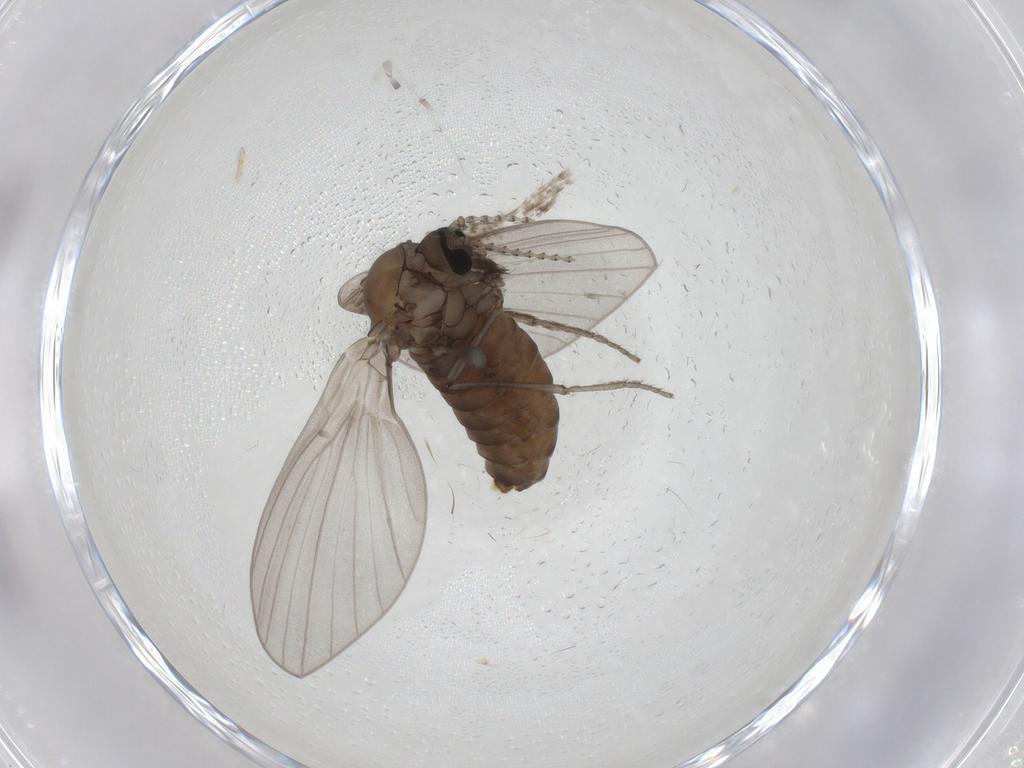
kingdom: Animalia
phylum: Arthropoda
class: Insecta
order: Diptera
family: Psychodidae
